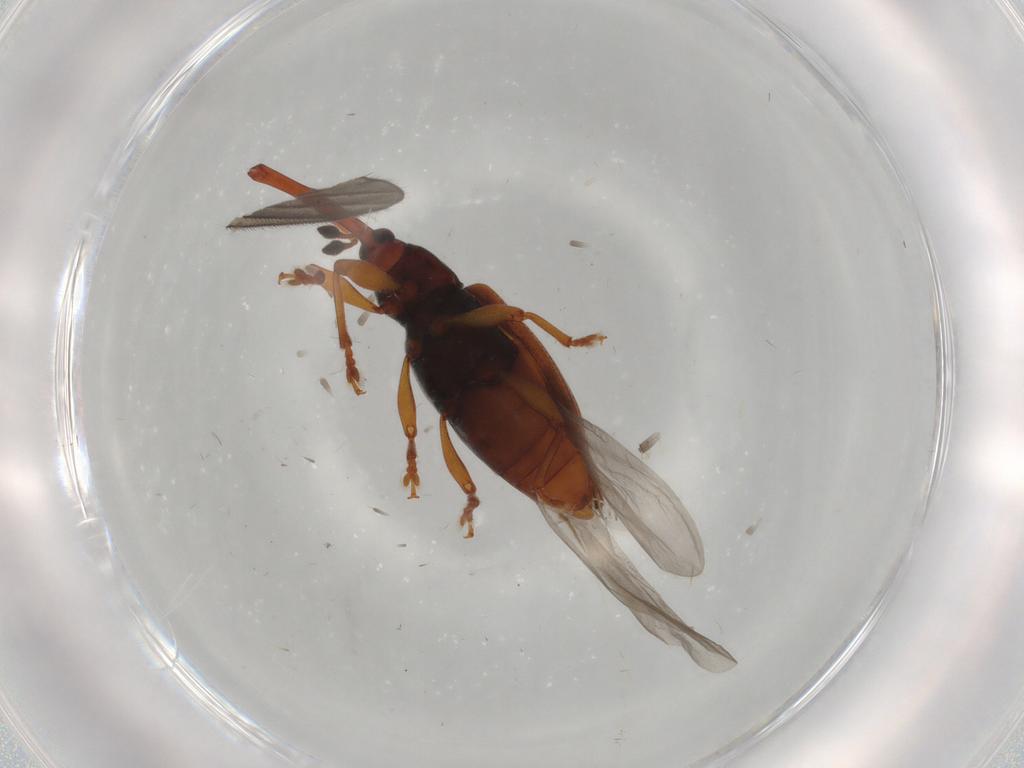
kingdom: Animalia
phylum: Arthropoda
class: Insecta
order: Coleoptera
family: Curculionidae
